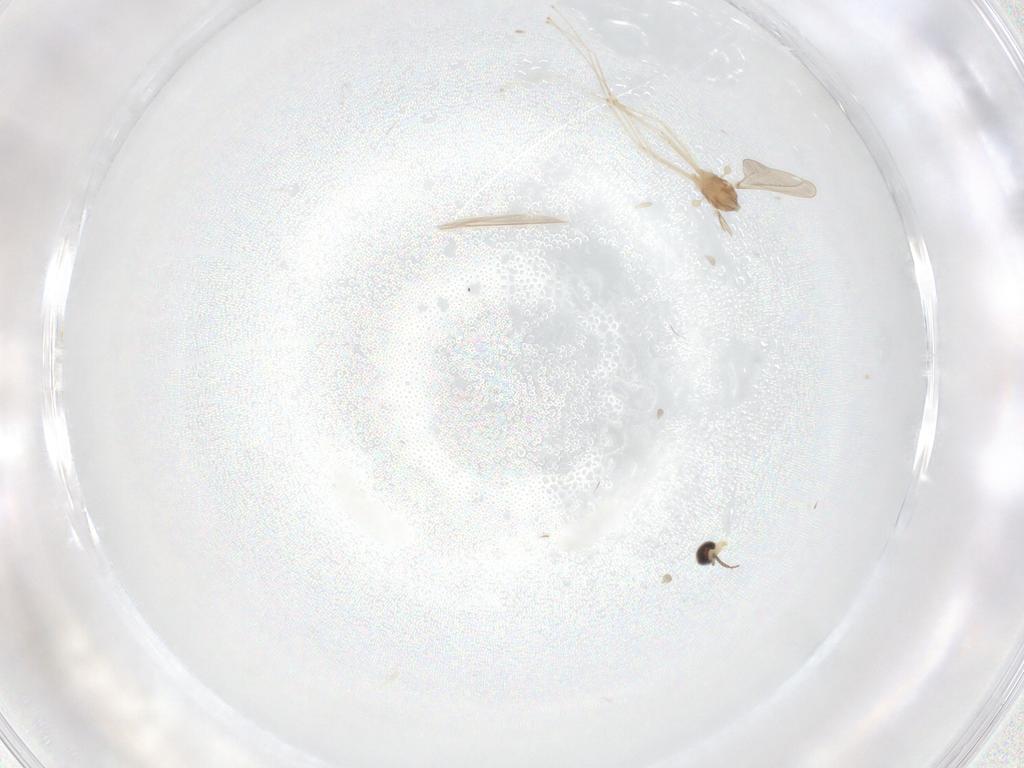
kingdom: Animalia
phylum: Arthropoda
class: Insecta
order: Diptera
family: Cecidomyiidae
